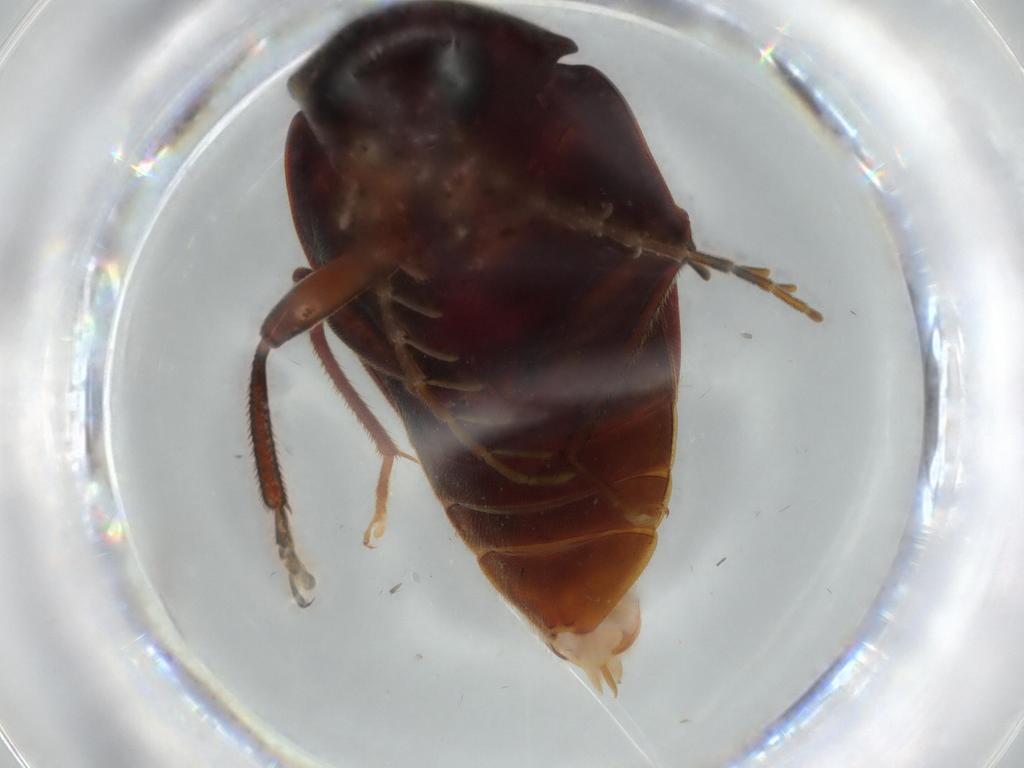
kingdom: Animalia
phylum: Arthropoda
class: Insecta
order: Coleoptera
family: Ptilodactylidae
